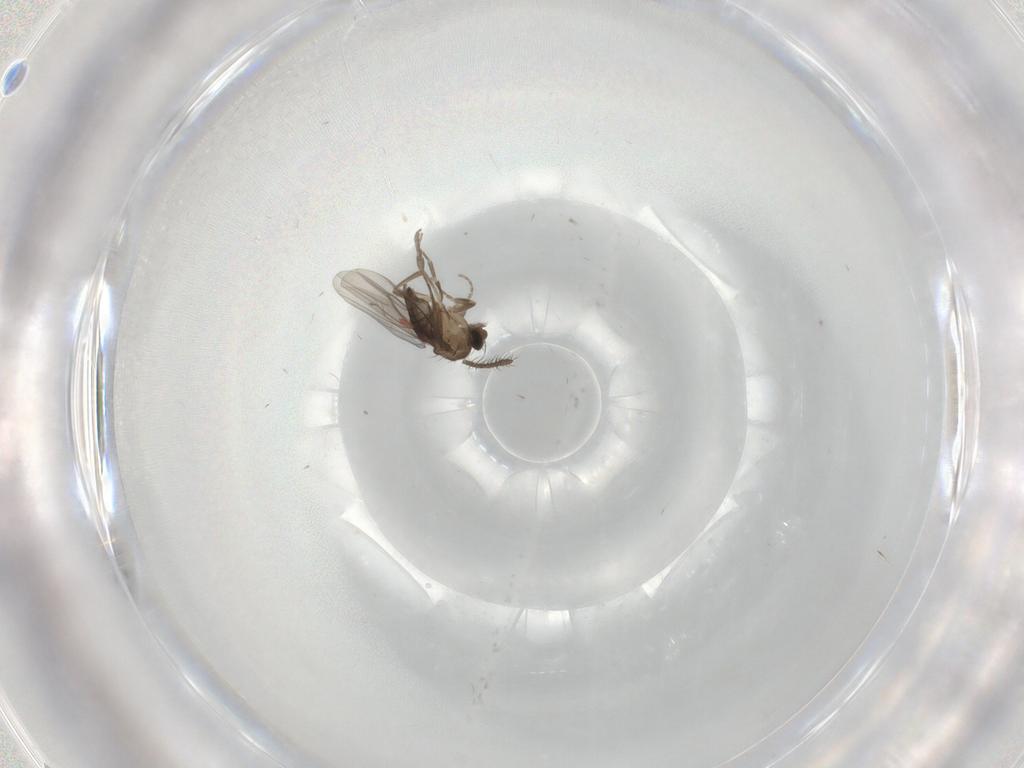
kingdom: Animalia
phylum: Arthropoda
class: Insecta
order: Diptera
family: Phoridae
